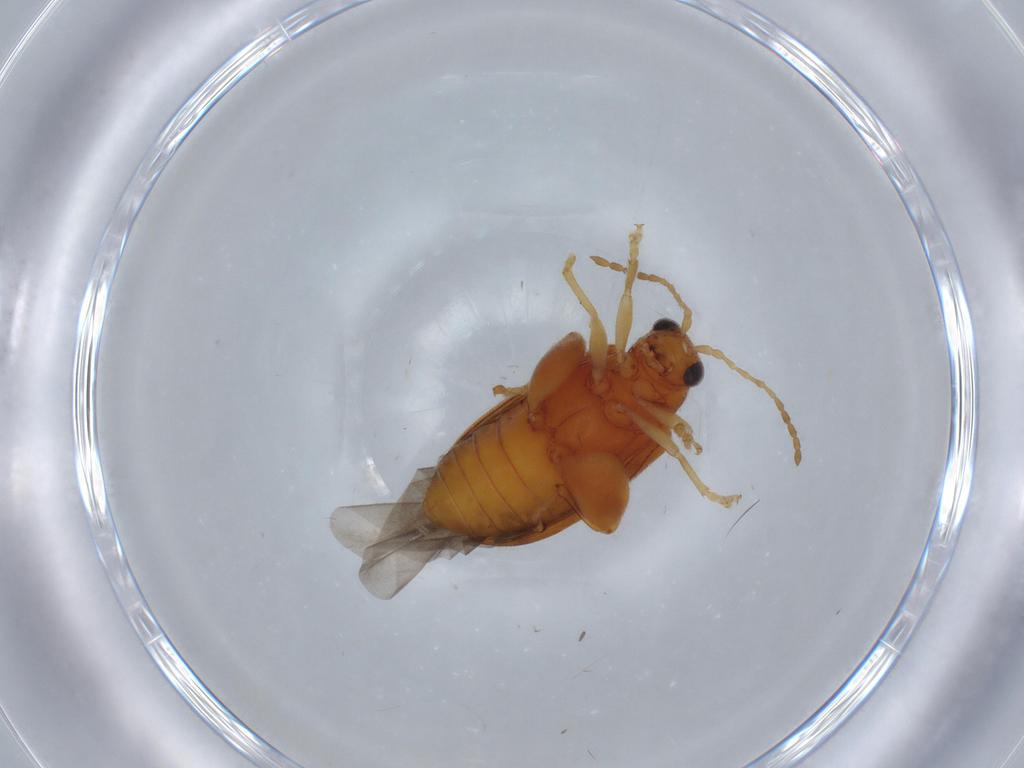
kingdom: Animalia
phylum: Arthropoda
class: Insecta
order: Coleoptera
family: Chrysomelidae
